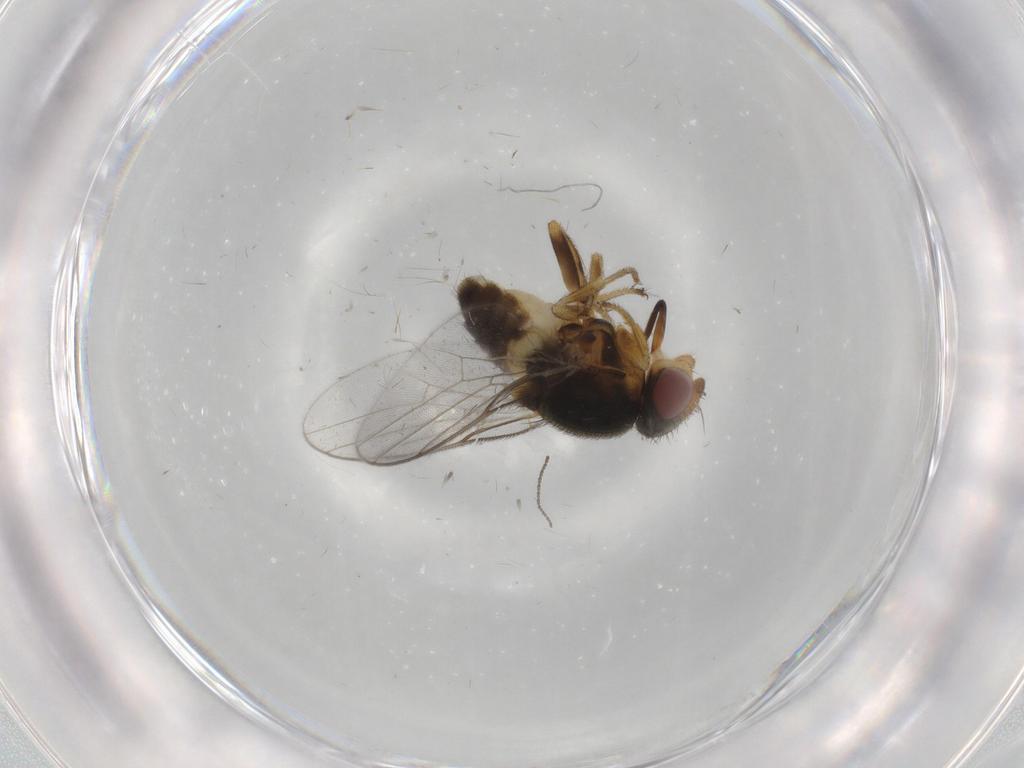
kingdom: Animalia
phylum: Arthropoda
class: Insecta
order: Diptera
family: Chloropidae
